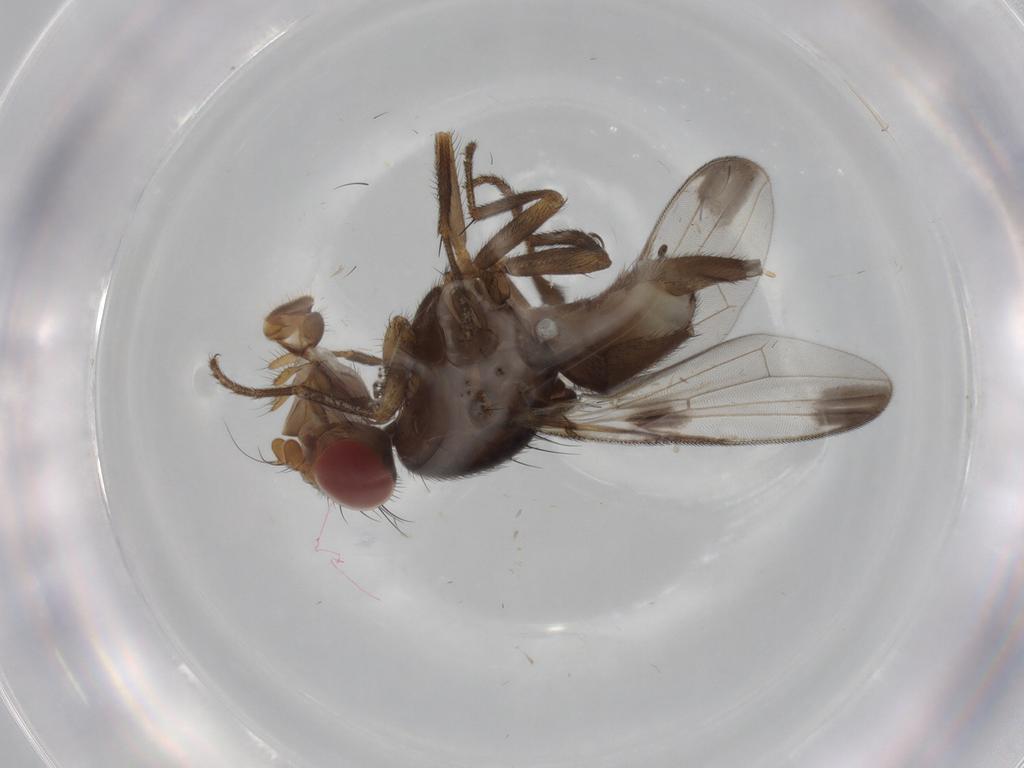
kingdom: Animalia
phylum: Arthropoda
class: Insecta
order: Diptera
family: Ulidiidae
